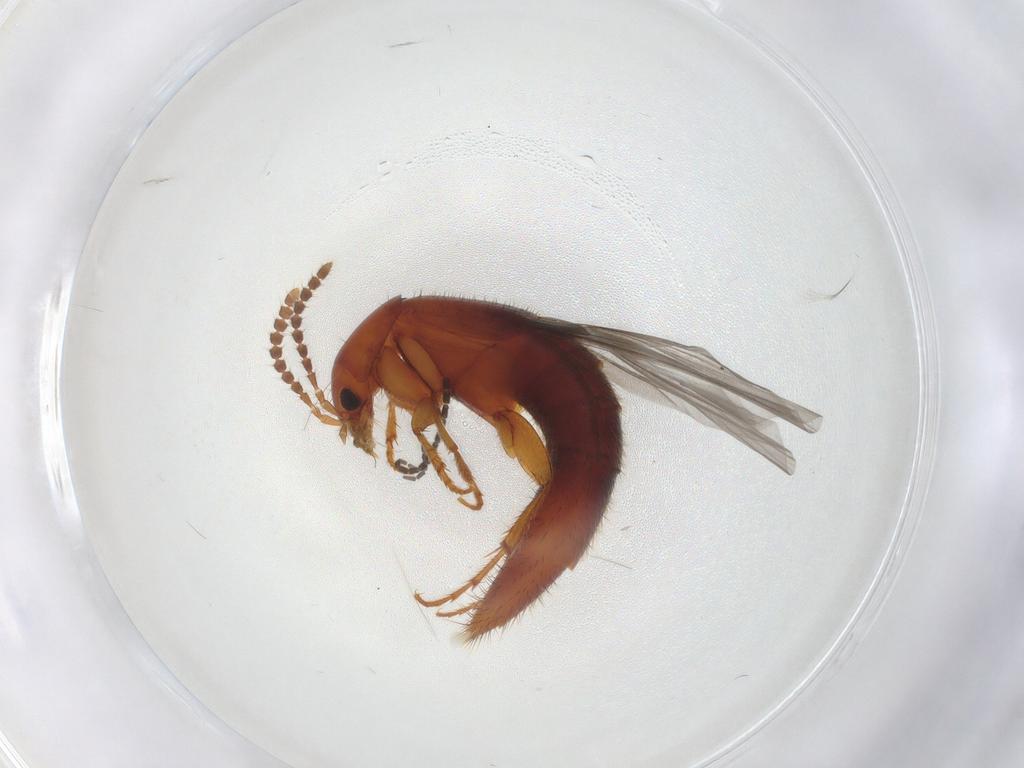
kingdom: Animalia
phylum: Arthropoda
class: Insecta
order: Coleoptera
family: Staphylinidae
